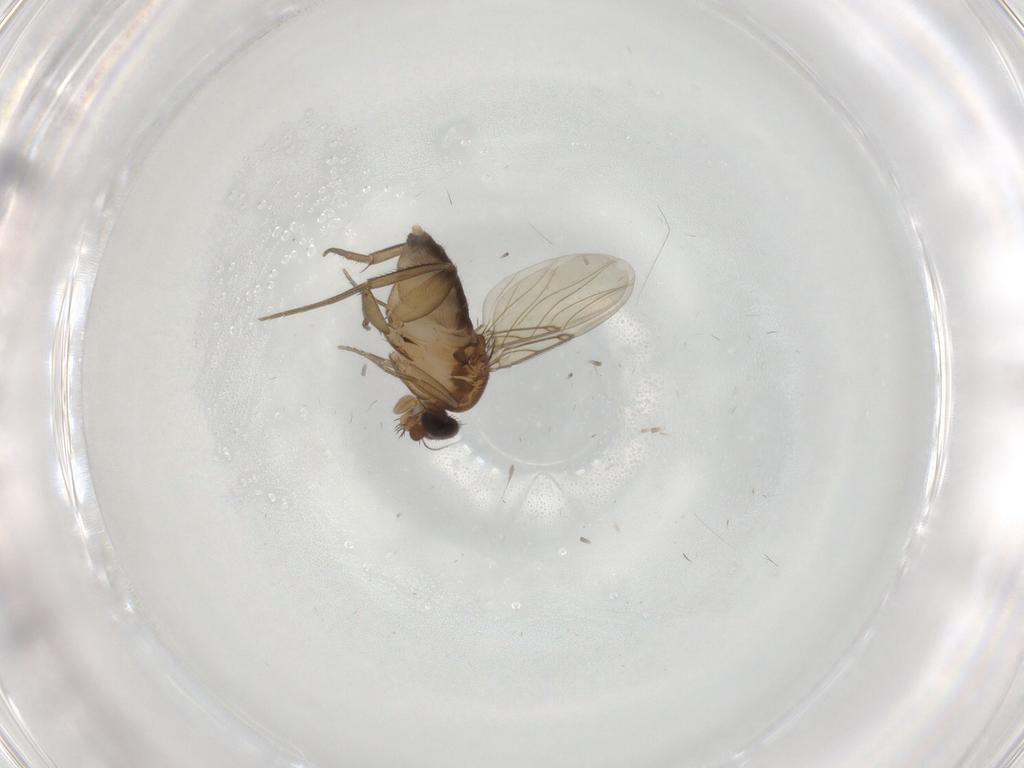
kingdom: Animalia
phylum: Arthropoda
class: Insecta
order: Diptera
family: Phoridae
